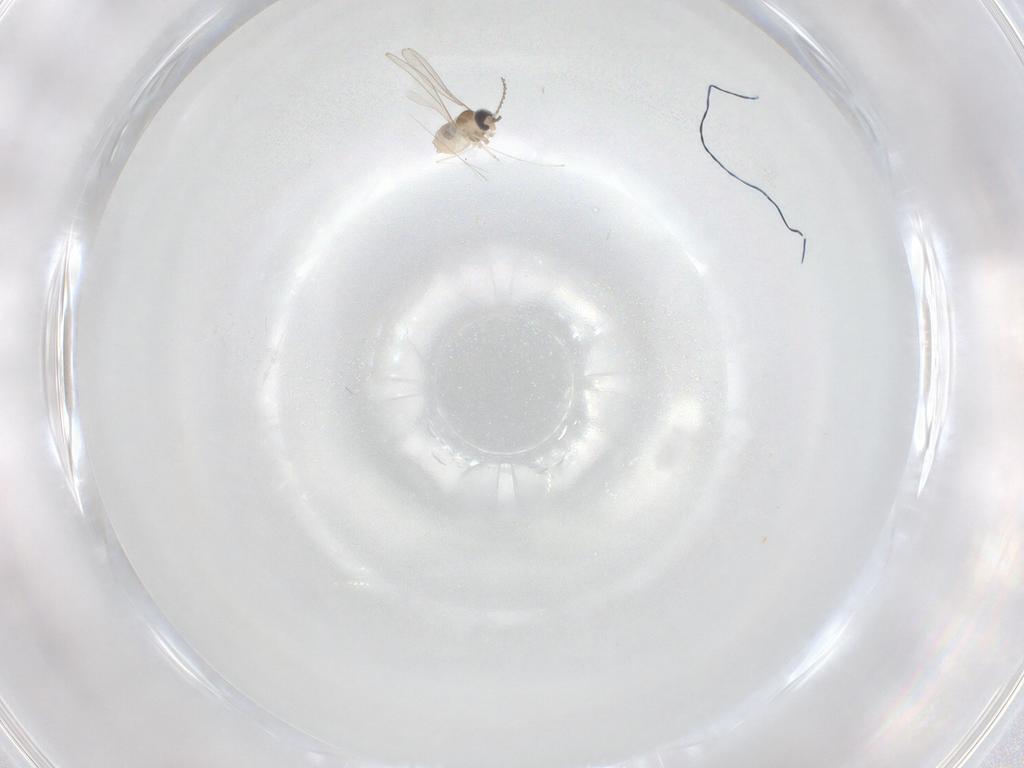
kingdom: Animalia
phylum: Arthropoda
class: Insecta
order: Diptera
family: Cecidomyiidae
